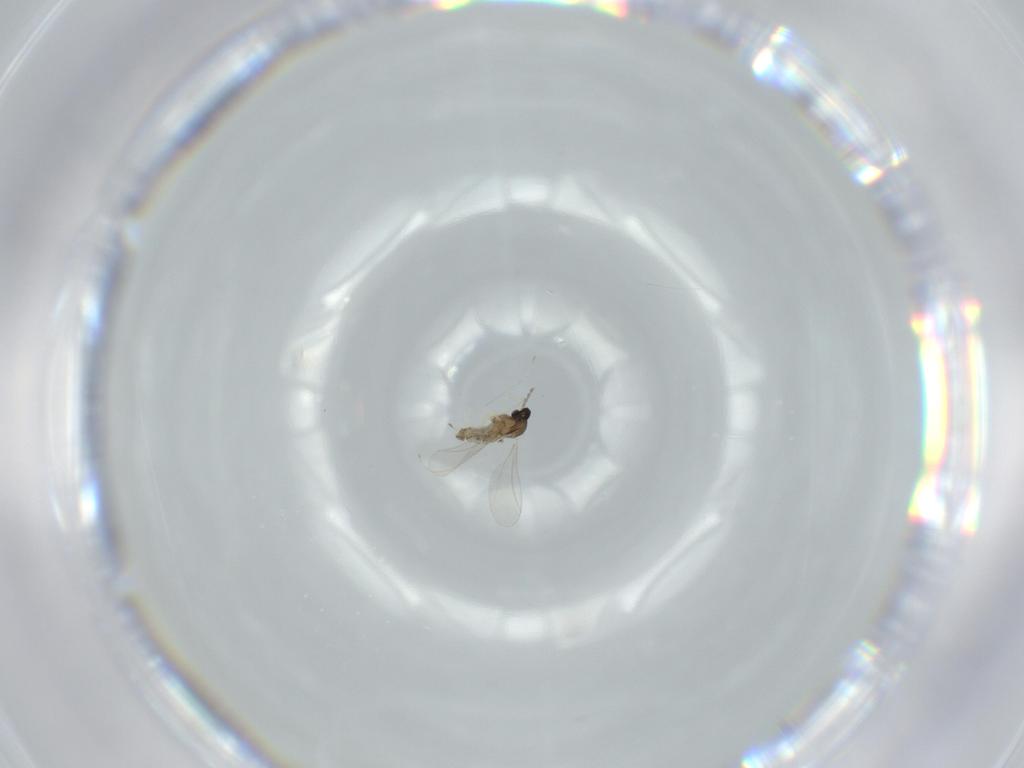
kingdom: Animalia
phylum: Arthropoda
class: Insecta
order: Diptera
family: Cecidomyiidae
